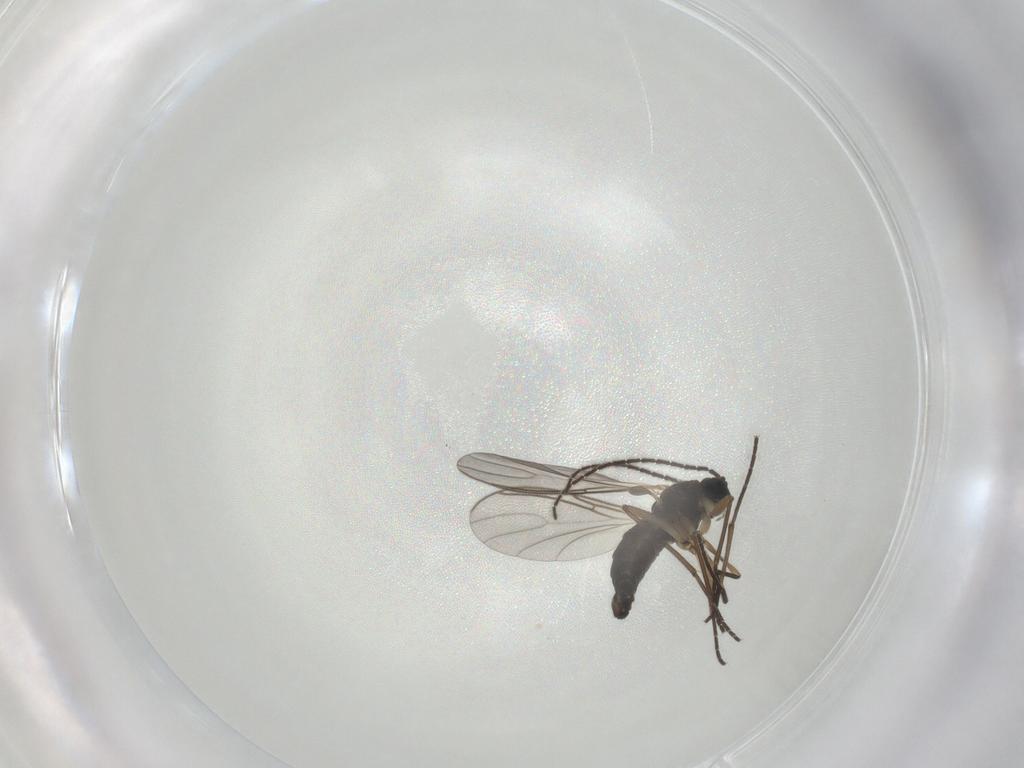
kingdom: Animalia
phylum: Arthropoda
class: Insecta
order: Diptera
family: Sciaridae
